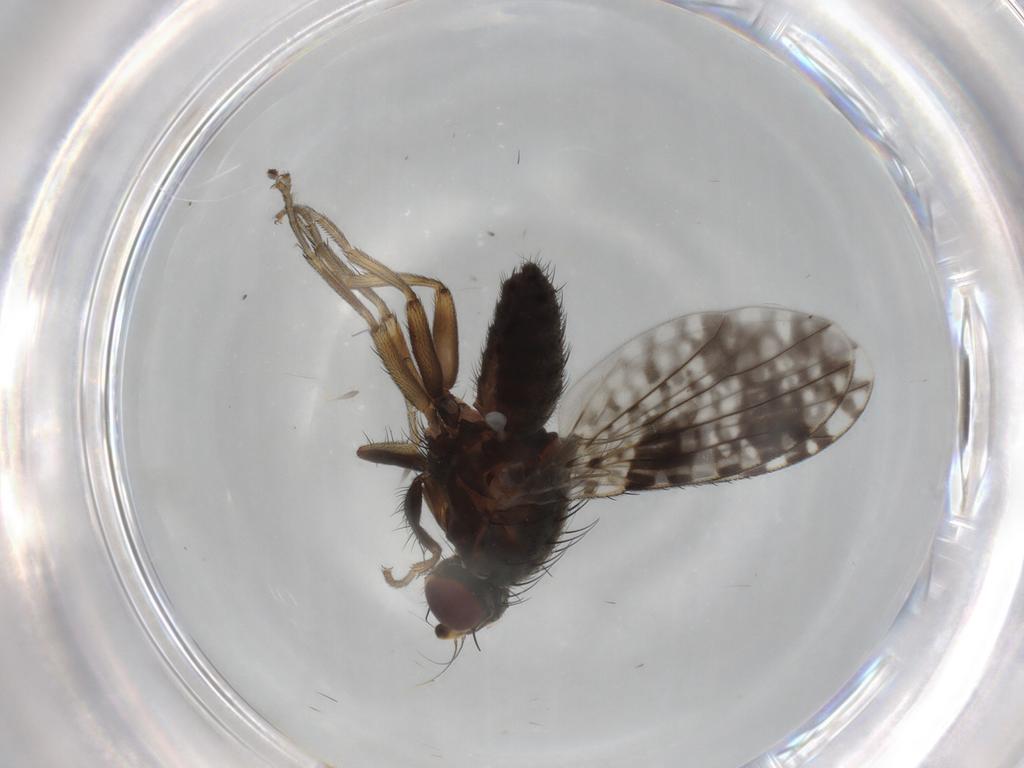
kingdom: Animalia
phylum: Arthropoda
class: Insecta
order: Diptera
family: Tephritidae
